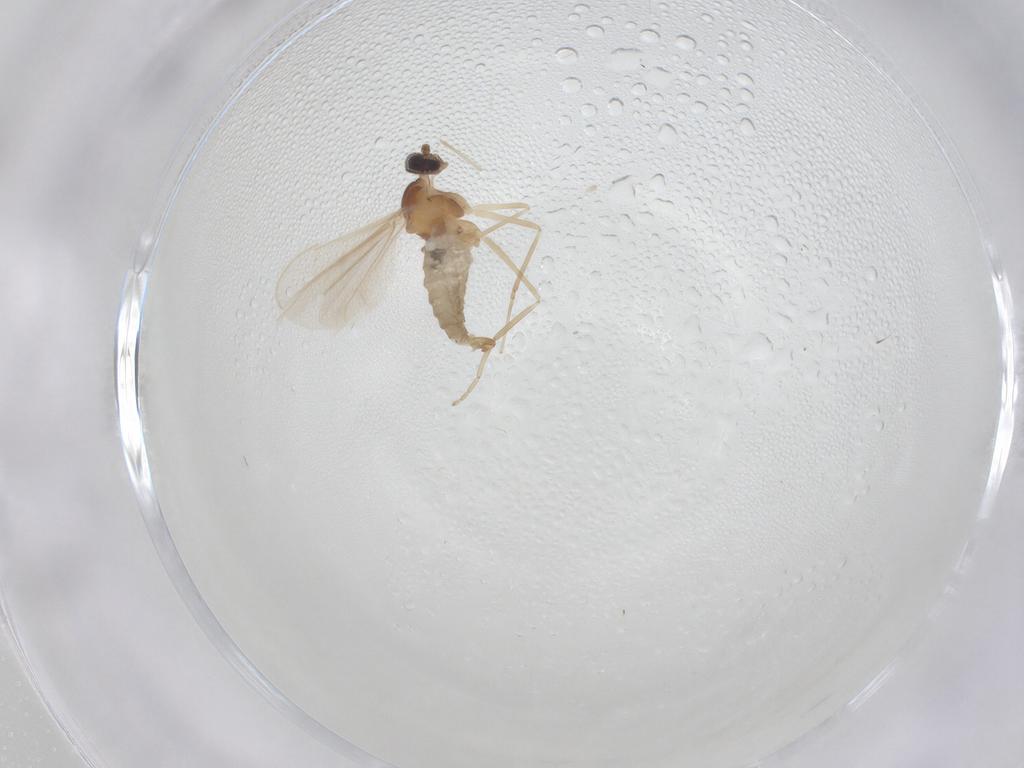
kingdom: Animalia
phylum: Arthropoda
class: Insecta
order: Diptera
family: Cecidomyiidae
